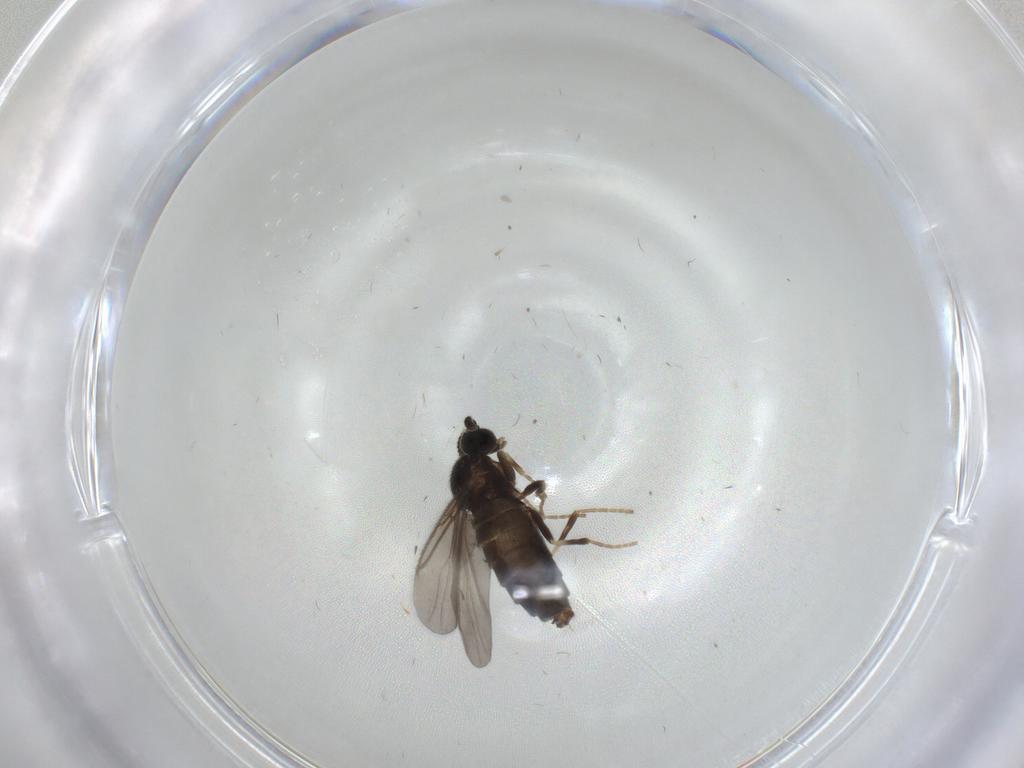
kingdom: Animalia
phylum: Arthropoda
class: Insecta
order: Diptera
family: Scatopsidae
